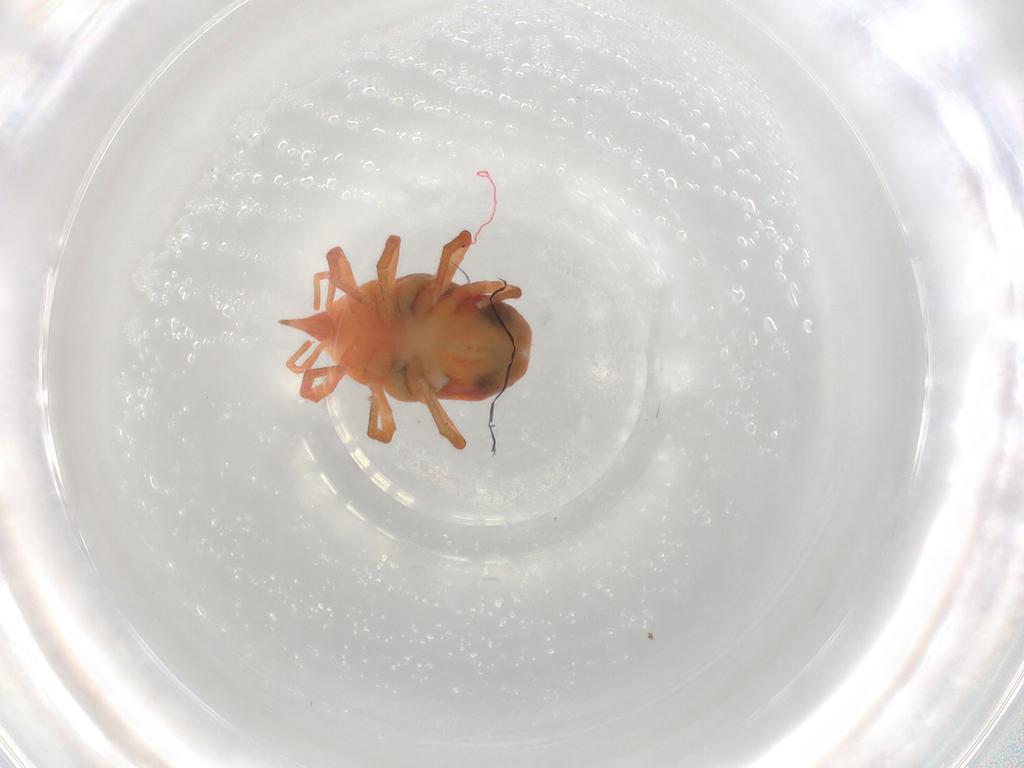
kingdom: Animalia
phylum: Arthropoda
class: Arachnida
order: Trombidiformes
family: Bdellidae
